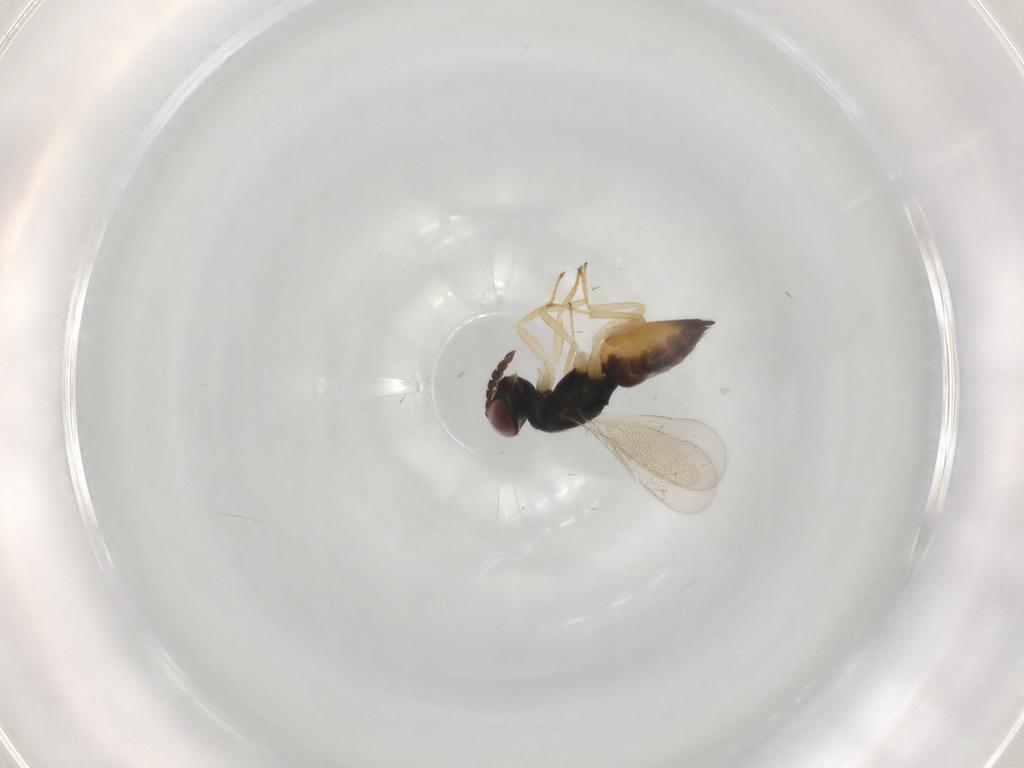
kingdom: Animalia
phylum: Arthropoda
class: Insecta
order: Hymenoptera
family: Eulophidae
